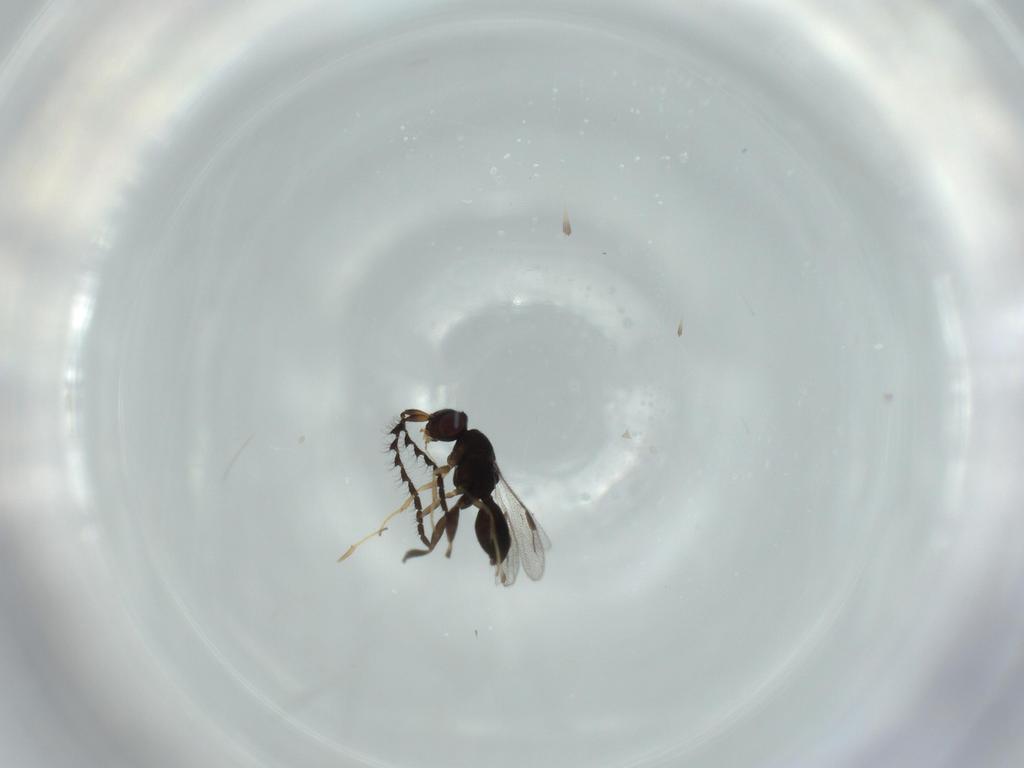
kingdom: Animalia
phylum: Arthropoda
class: Insecta
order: Hymenoptera
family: Megaspilidae
